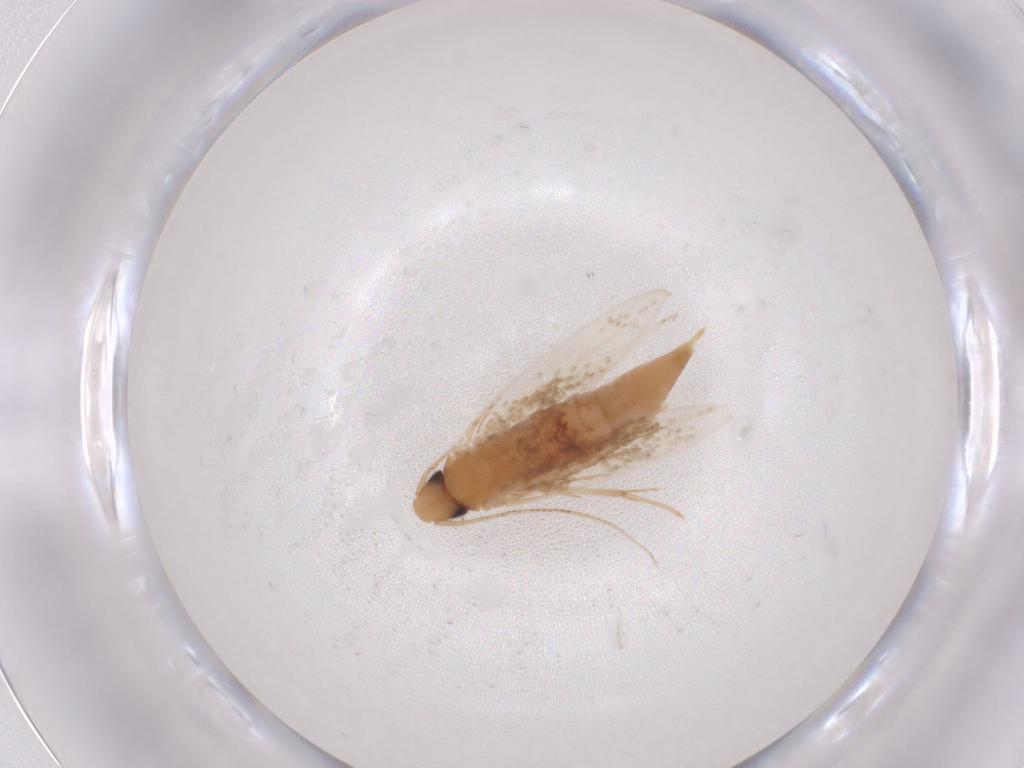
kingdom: Animalia
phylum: Arthropoda
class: Insecta
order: Lepidoptera
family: Tineidae
